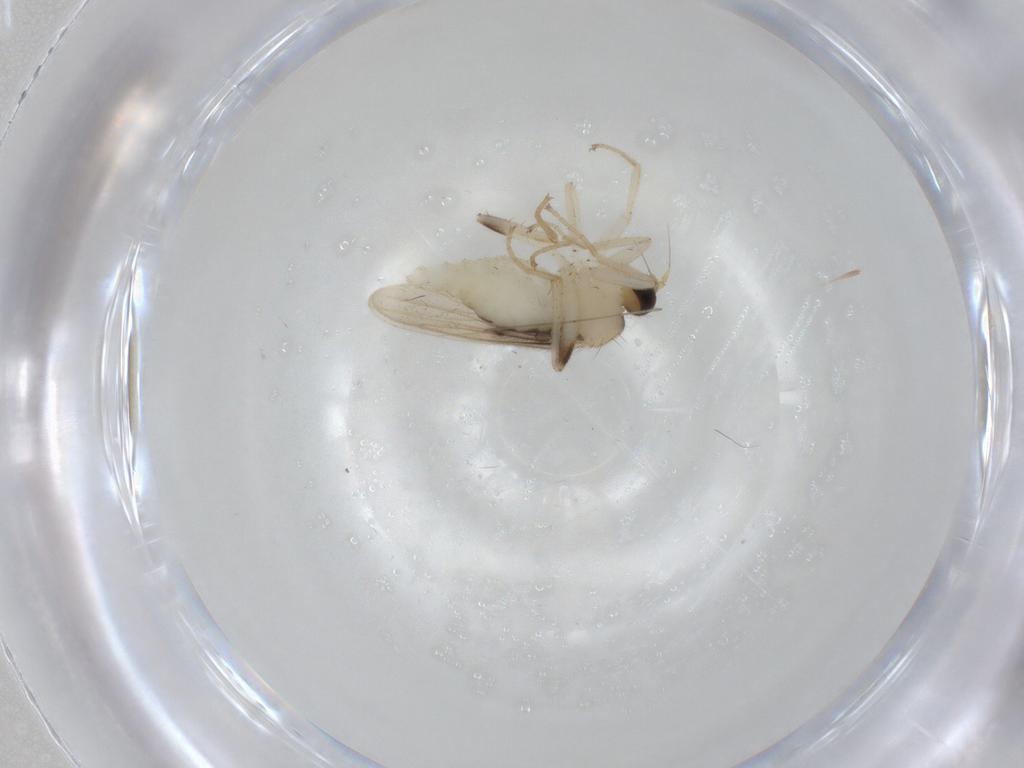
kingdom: Animalia
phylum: Arthropoda
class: Insecta
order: Diptera
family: Hybotidae
